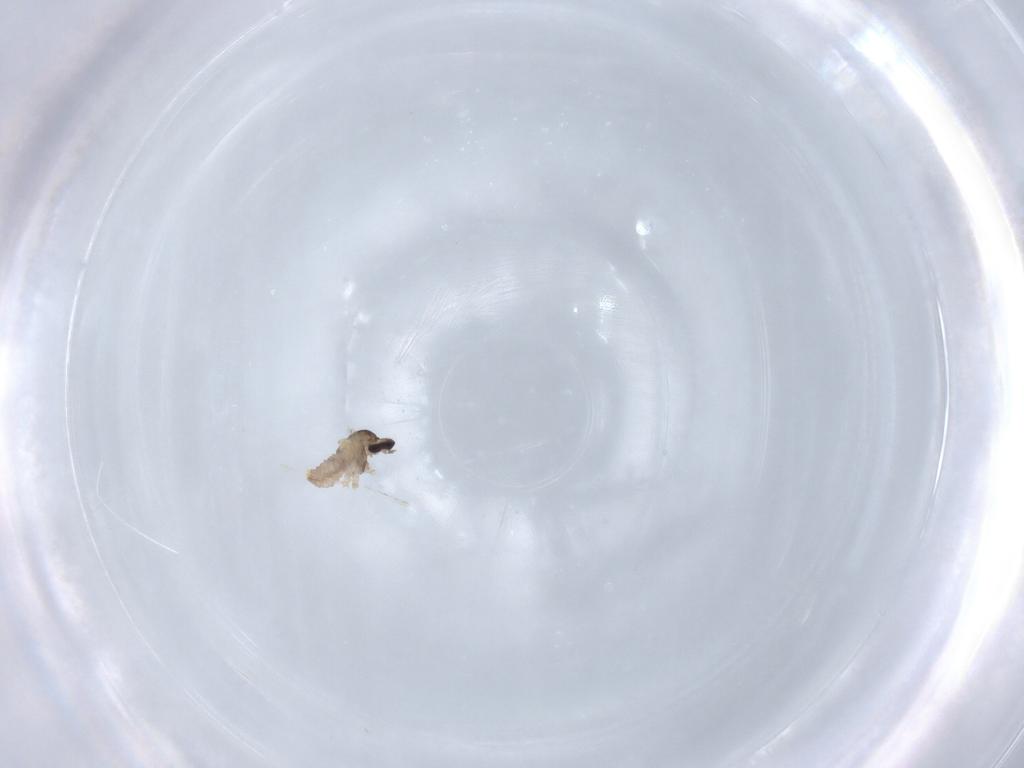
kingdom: Animalia
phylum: Arthropoda
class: Insecta
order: Diptera
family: Cecidomyiidae
